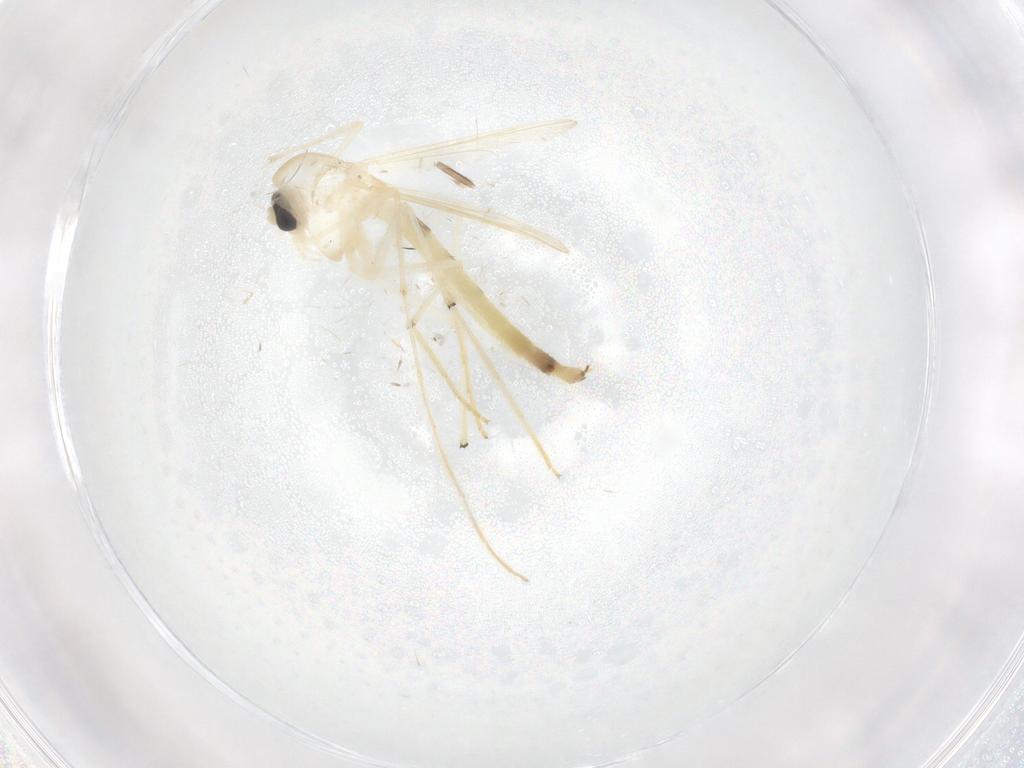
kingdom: Animalia
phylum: Arthropoda
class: Insecta
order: Diptera
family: Chironomidae
